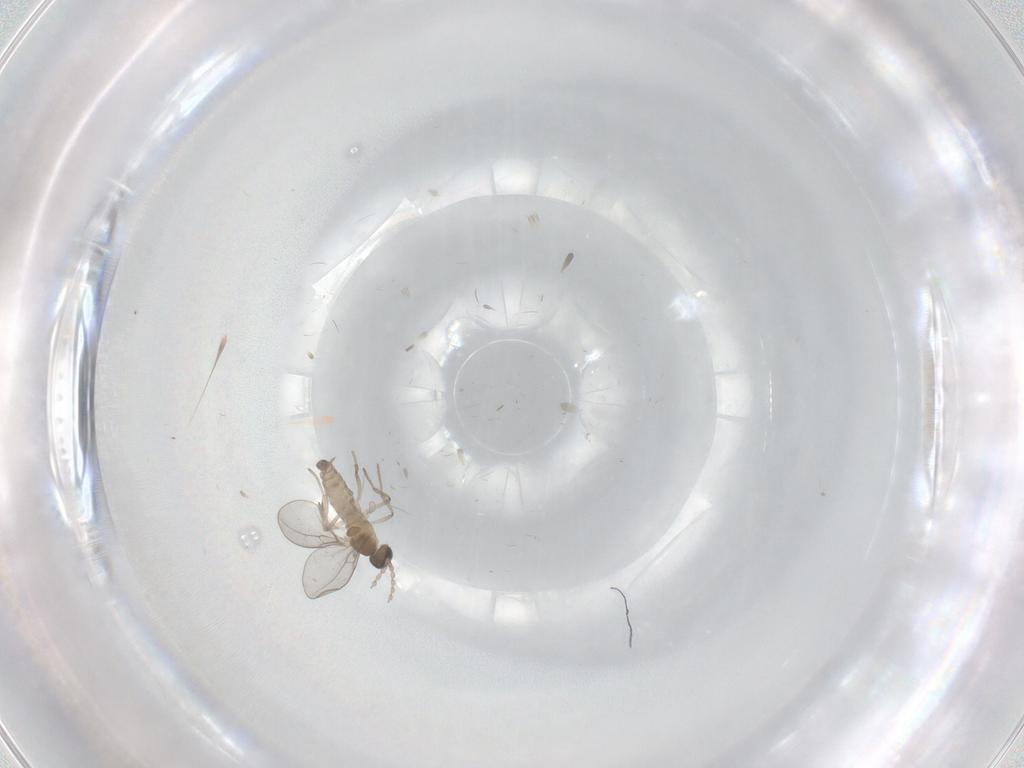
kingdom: Animalia
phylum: Arthropoda
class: Insecta
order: Diptera
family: Cecidomyiidae
